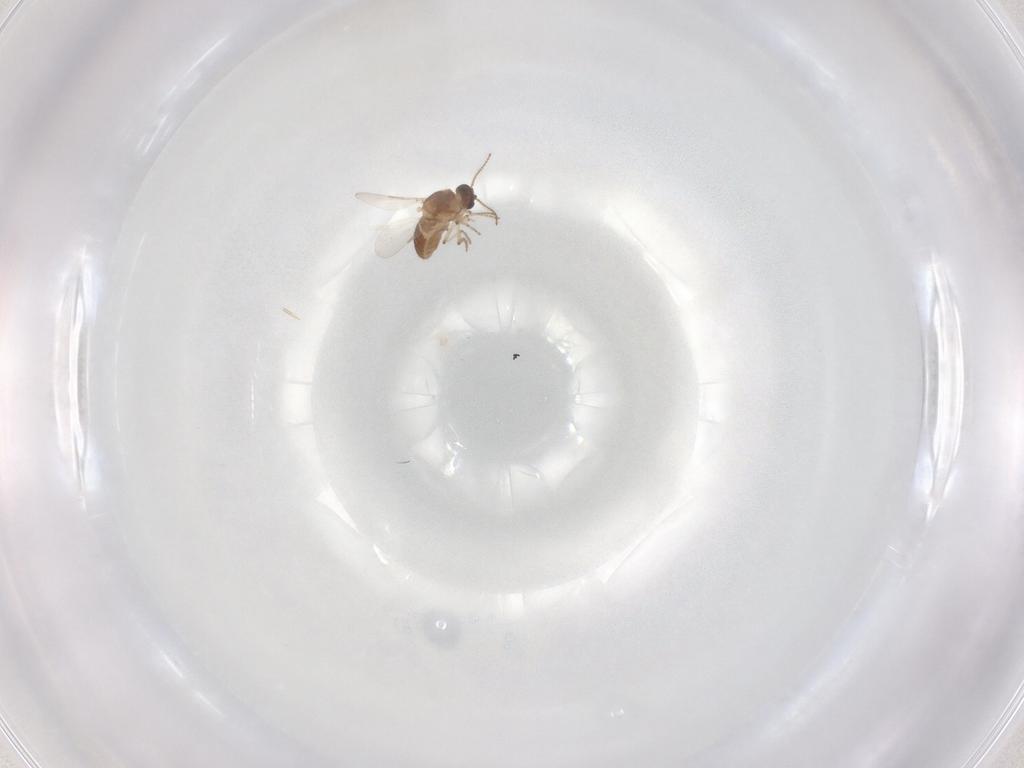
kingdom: Animalia
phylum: Arthropoda
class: Insecta
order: Diptera
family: Ceratopogonidae
